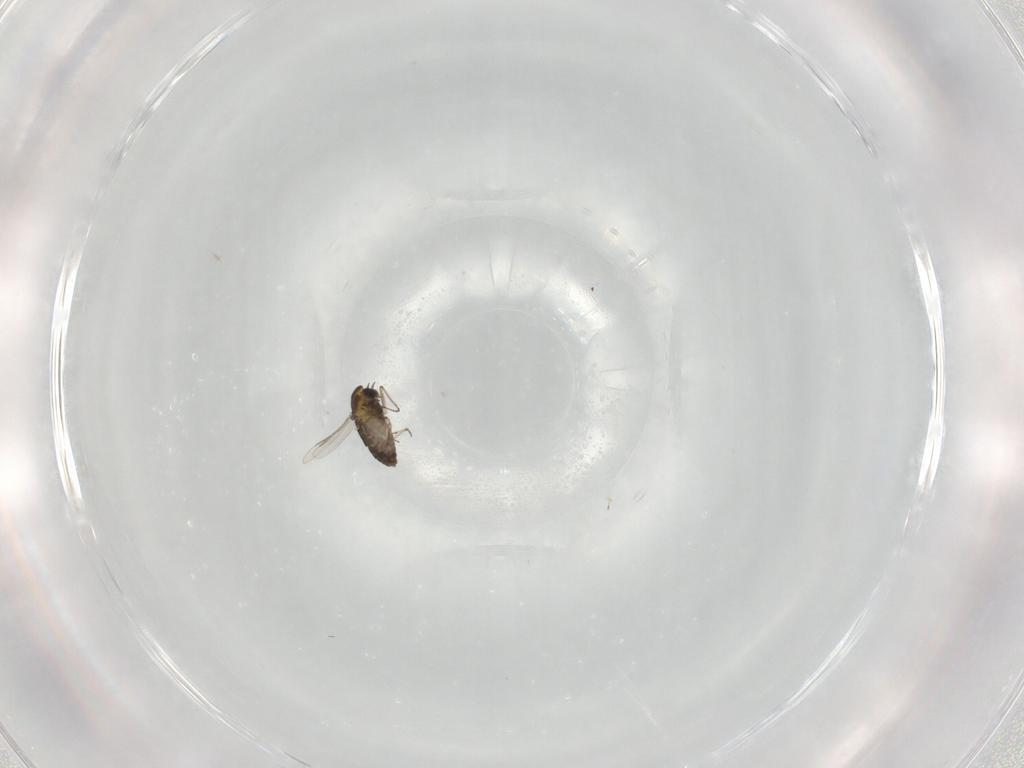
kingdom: Animalia
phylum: Arthropoda
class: Insecta
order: Diptera
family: Chironomidae
